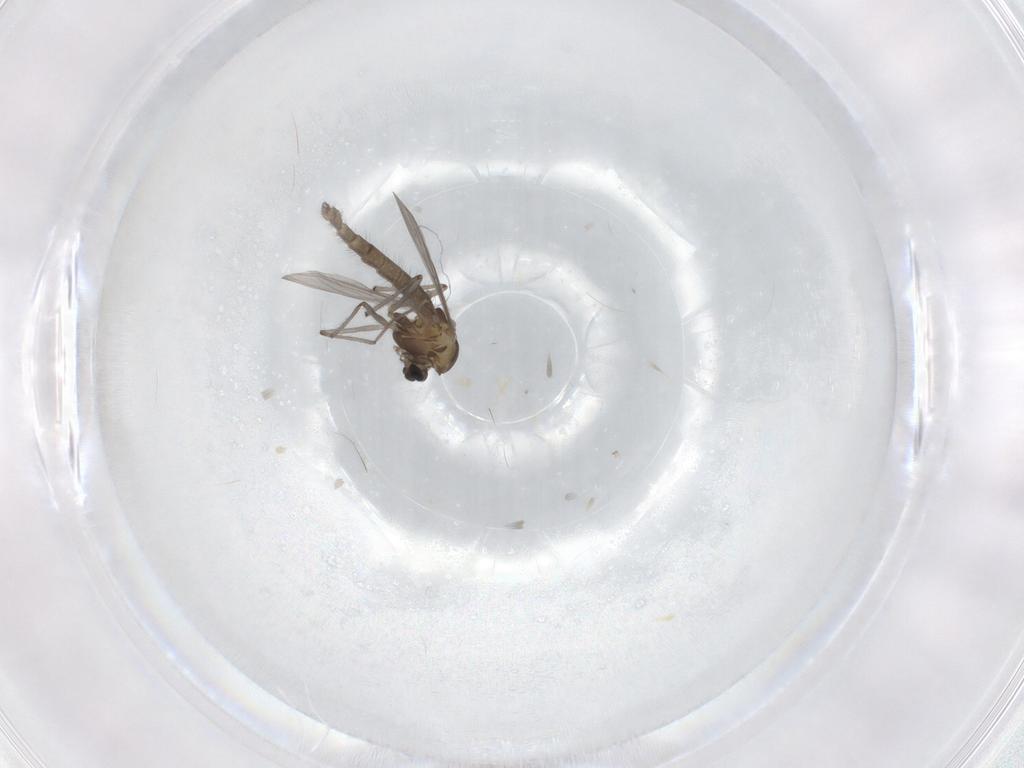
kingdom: Animalia
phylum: Arthropoda
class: Insecta
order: Diptera
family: Chironomidae
